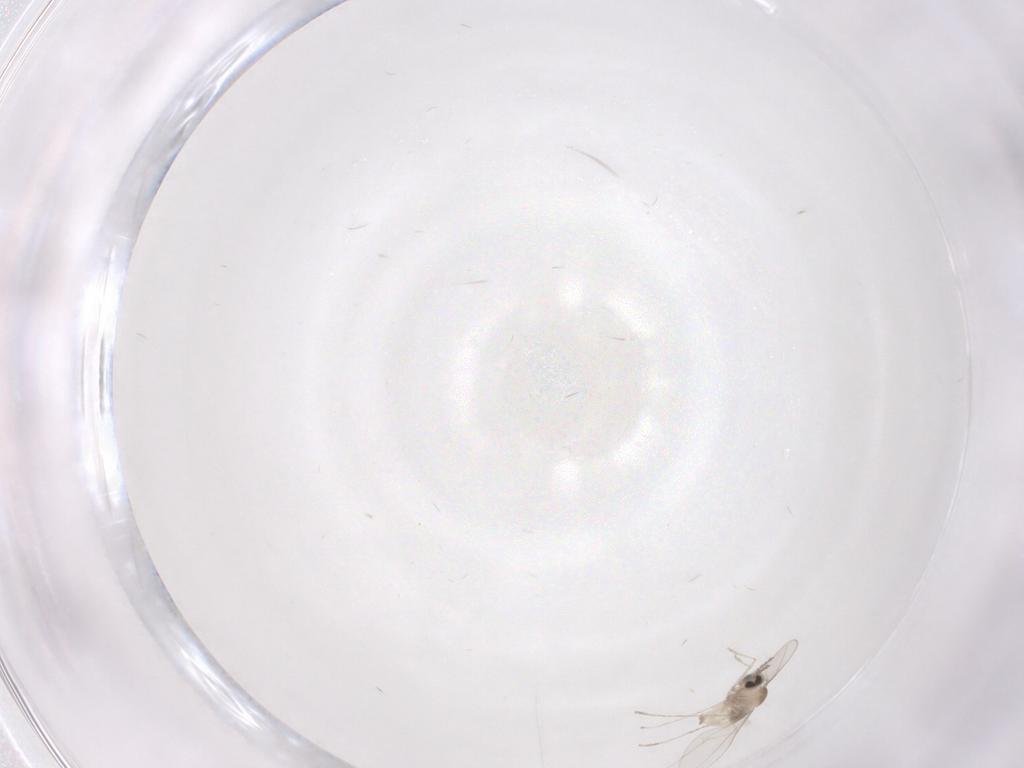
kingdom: Animalia
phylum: Arthropoda
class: Insecta
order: Diptera
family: Cecidomyiidae
